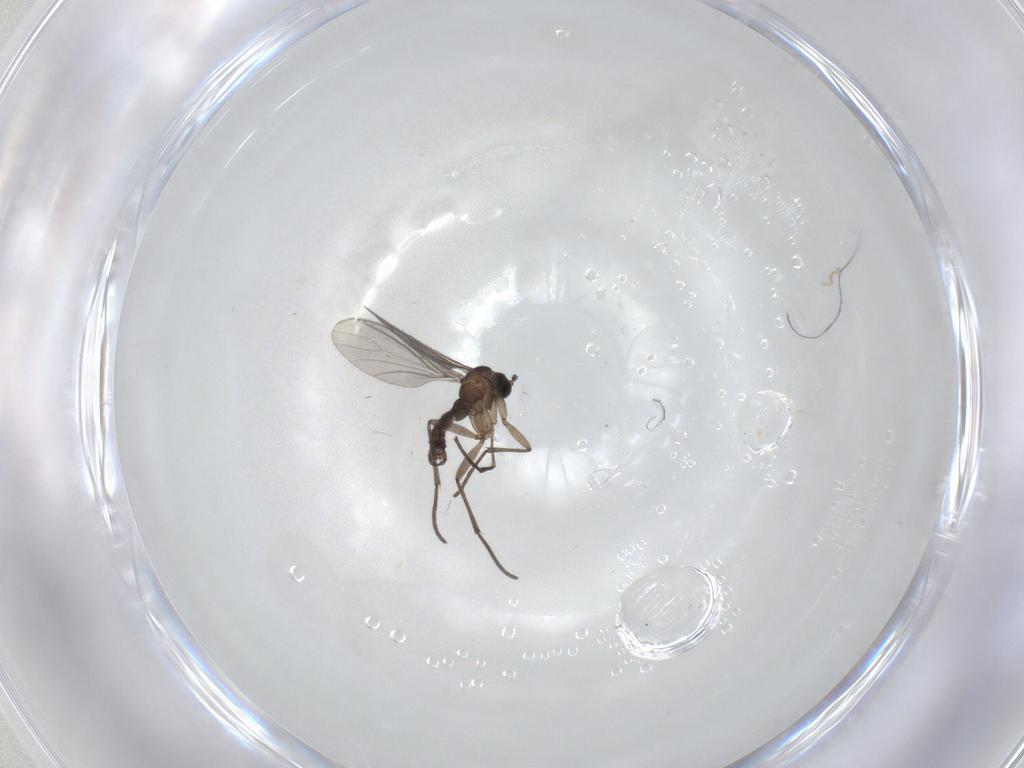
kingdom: Animalia
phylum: Arthropoda
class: Insecta
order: Diptera
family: Sciaridae
